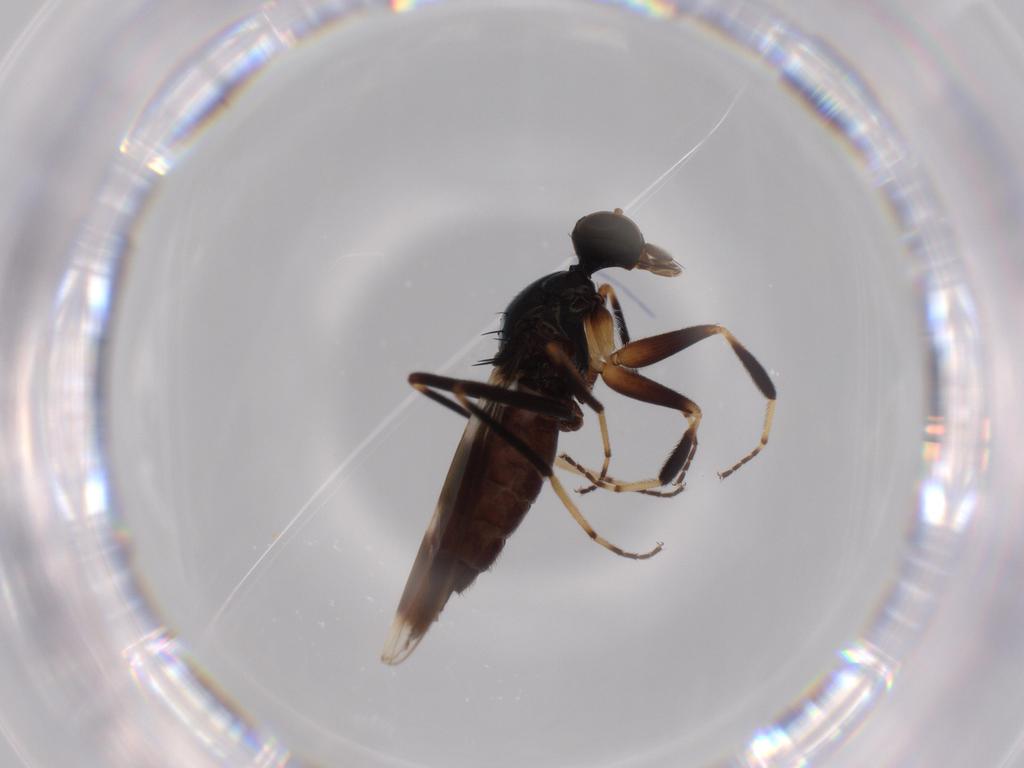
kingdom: Animalia
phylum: Arthropoda
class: Insecta
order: Diptera
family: Hybotidae
